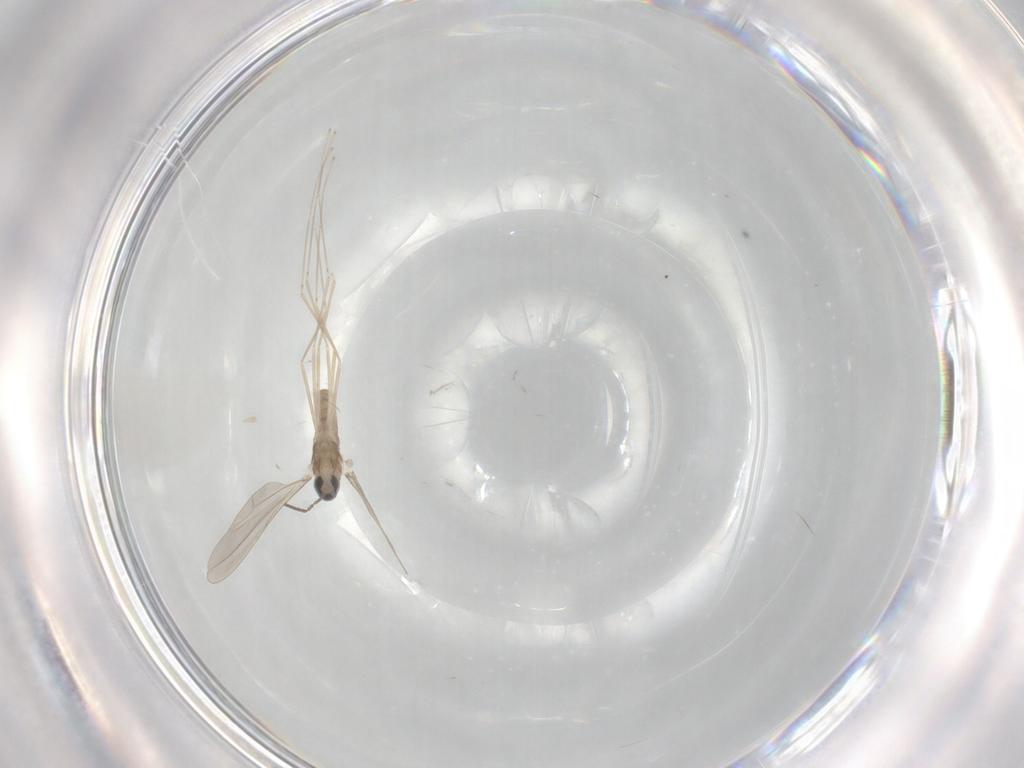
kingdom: Animalia
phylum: Arthropoda
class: Insecta
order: Diptera
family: Cecidomyiidae
